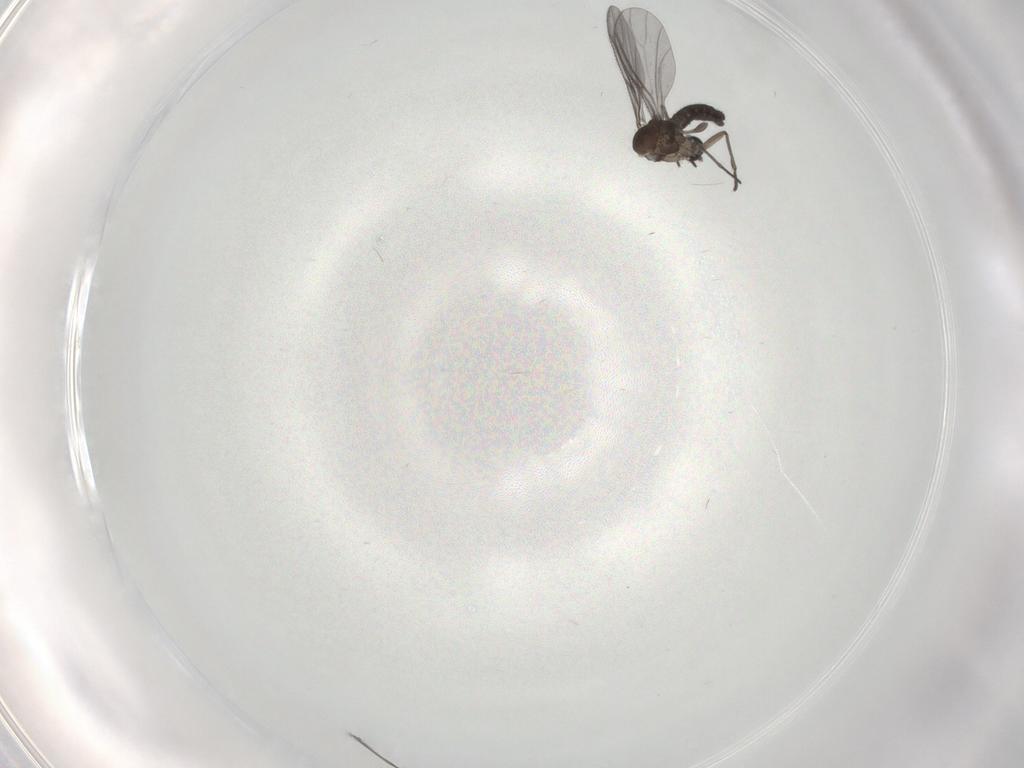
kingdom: Animalia
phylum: Arthropoda
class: Insecta
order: Diptera
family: Sciaridae
